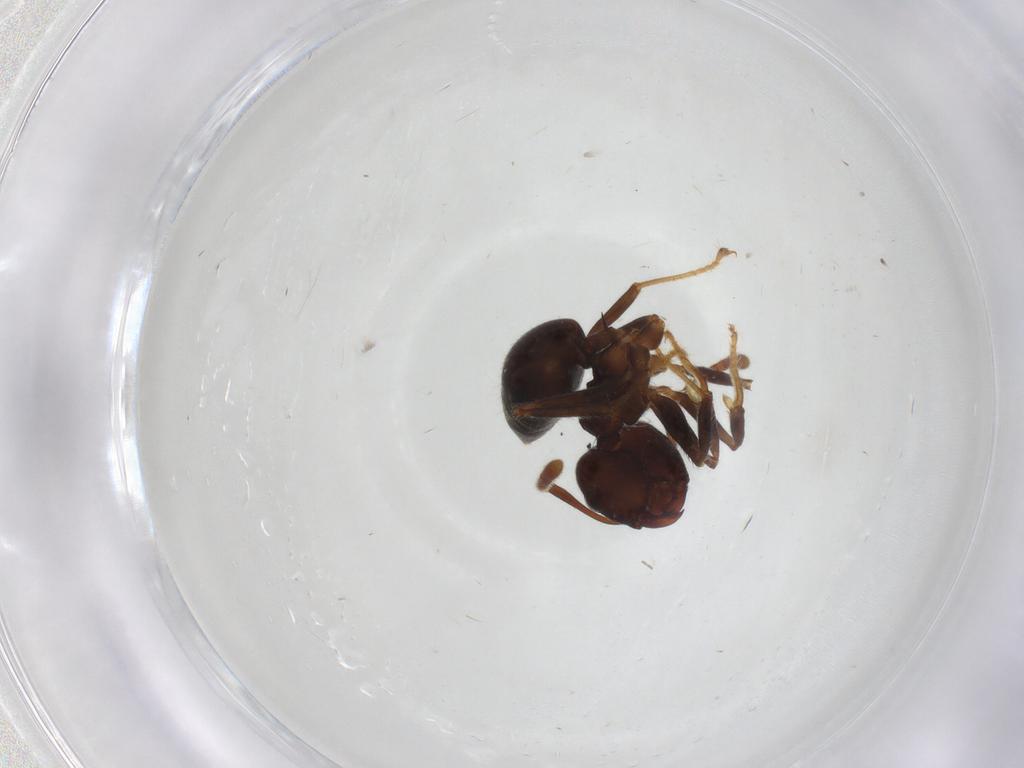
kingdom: Animalia
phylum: Arthropoda
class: Insecta
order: Hymenoptera
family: Formicidae
